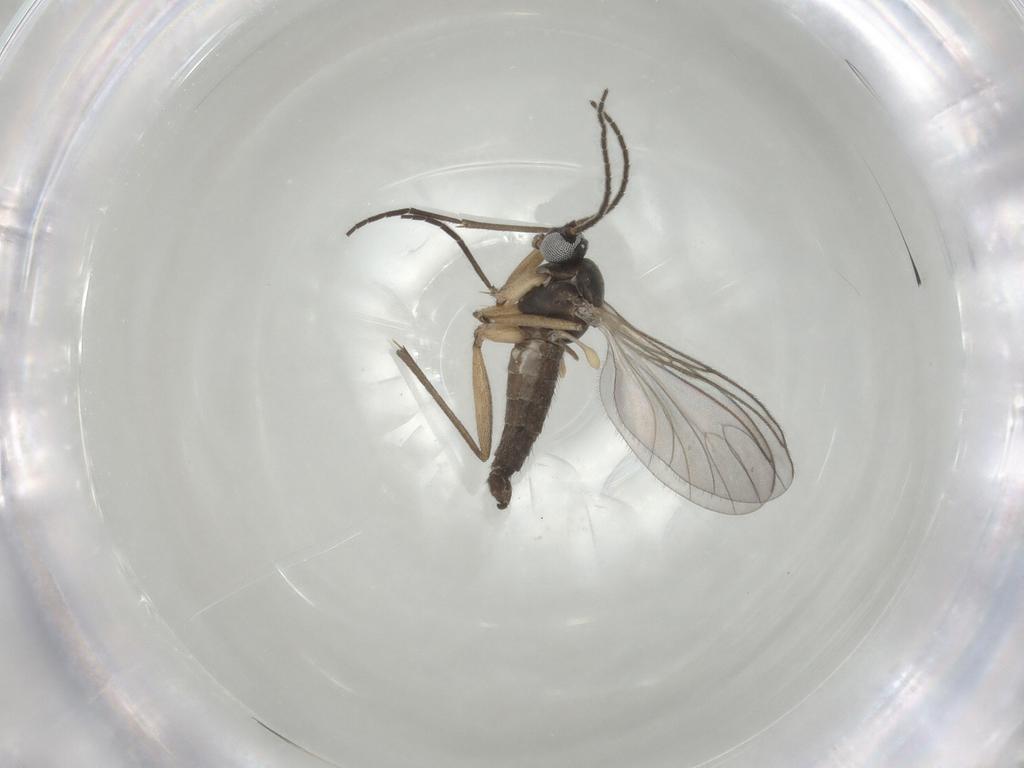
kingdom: Animalia
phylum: Arthropoda
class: Insecta
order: Diptera
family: Sciaridae
